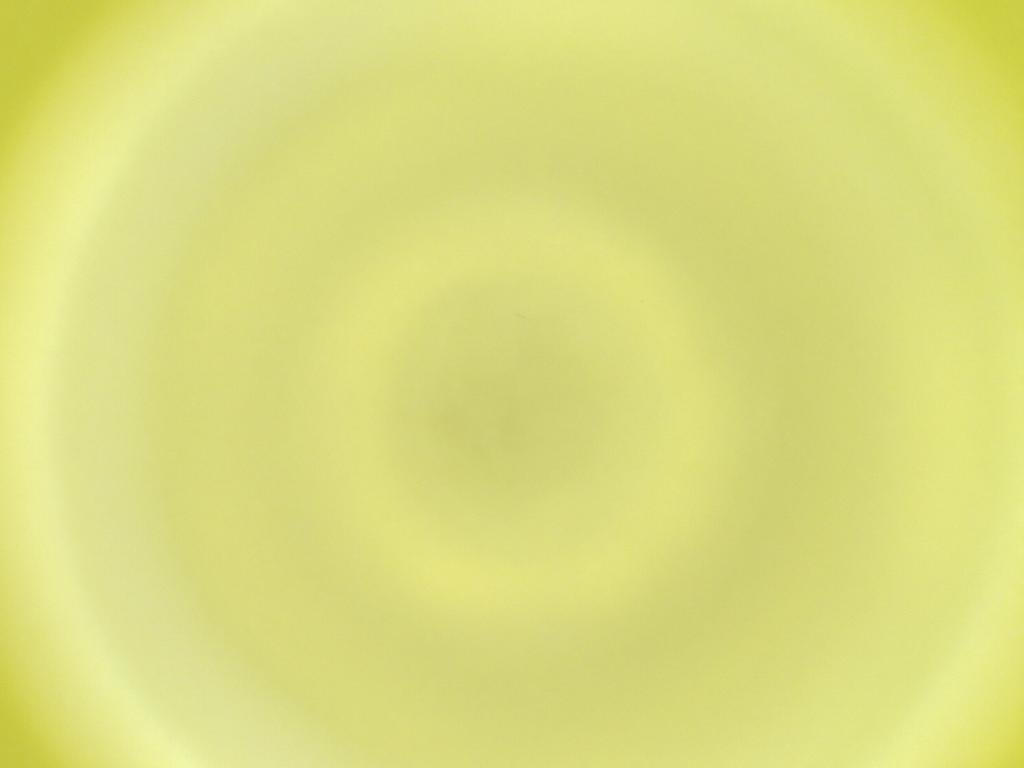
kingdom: Animalia
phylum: Arthropoda
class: Insecta
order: Diptera
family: Cecidomyiidae
